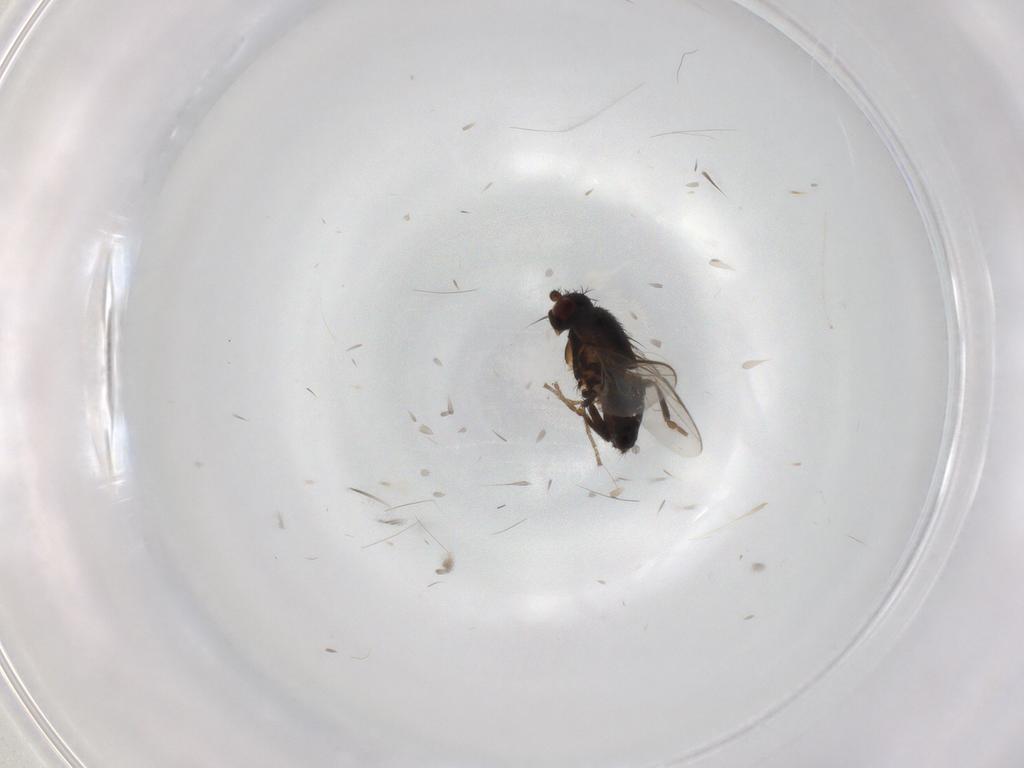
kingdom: Animalia
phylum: Arthropoda
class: Insecta
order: Diptera
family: Sphaeroceridae
